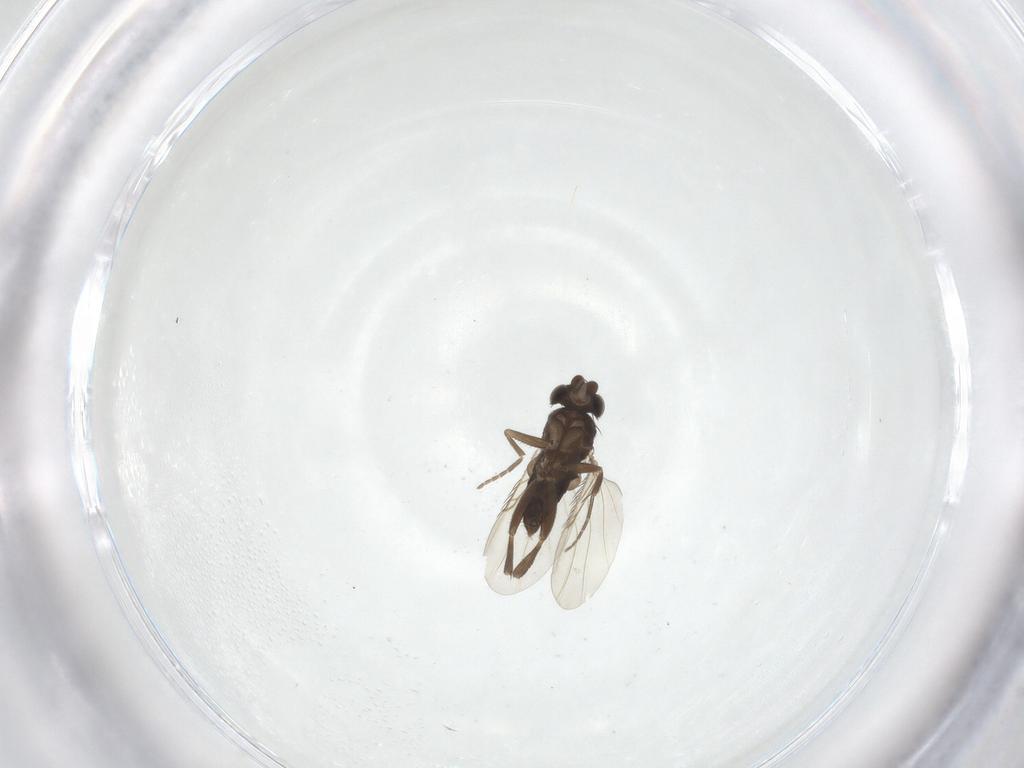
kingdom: Animalia
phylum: Arthropoda
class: Insecta
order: Diptera
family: Phoridae
